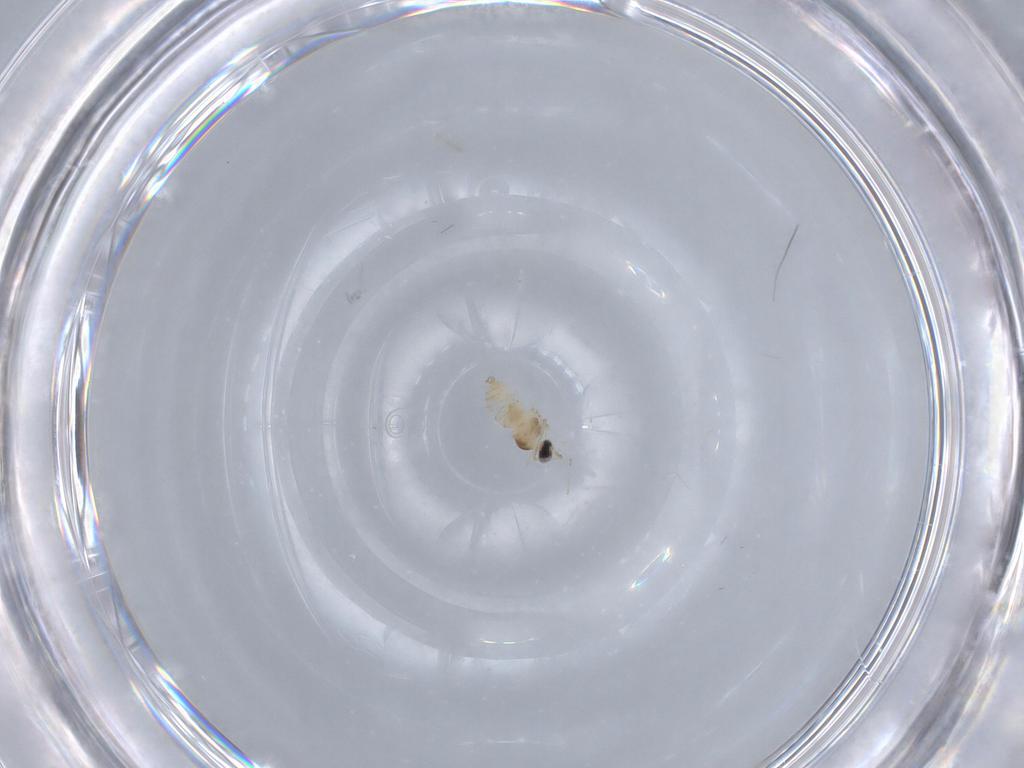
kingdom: Animalia
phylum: Arthropoda
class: Insecta
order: Diptera
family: Cecidomyiidae
